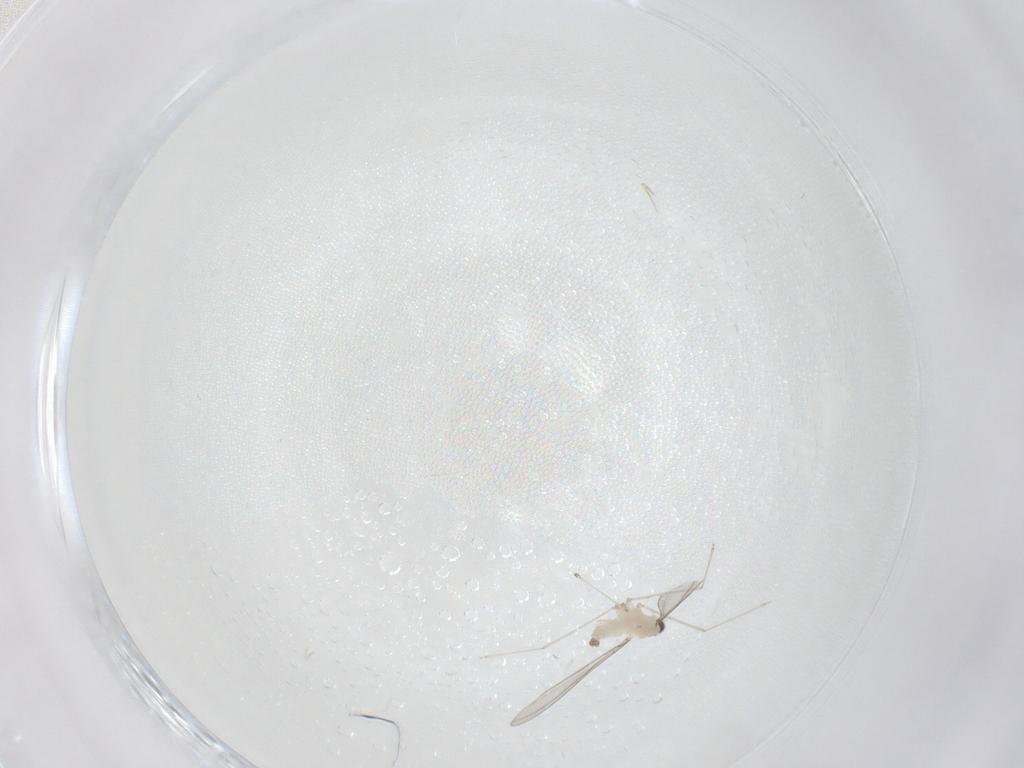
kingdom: Animalia
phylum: Arthropoda
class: Insecta
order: Diptera
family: Cecidomyiidae
